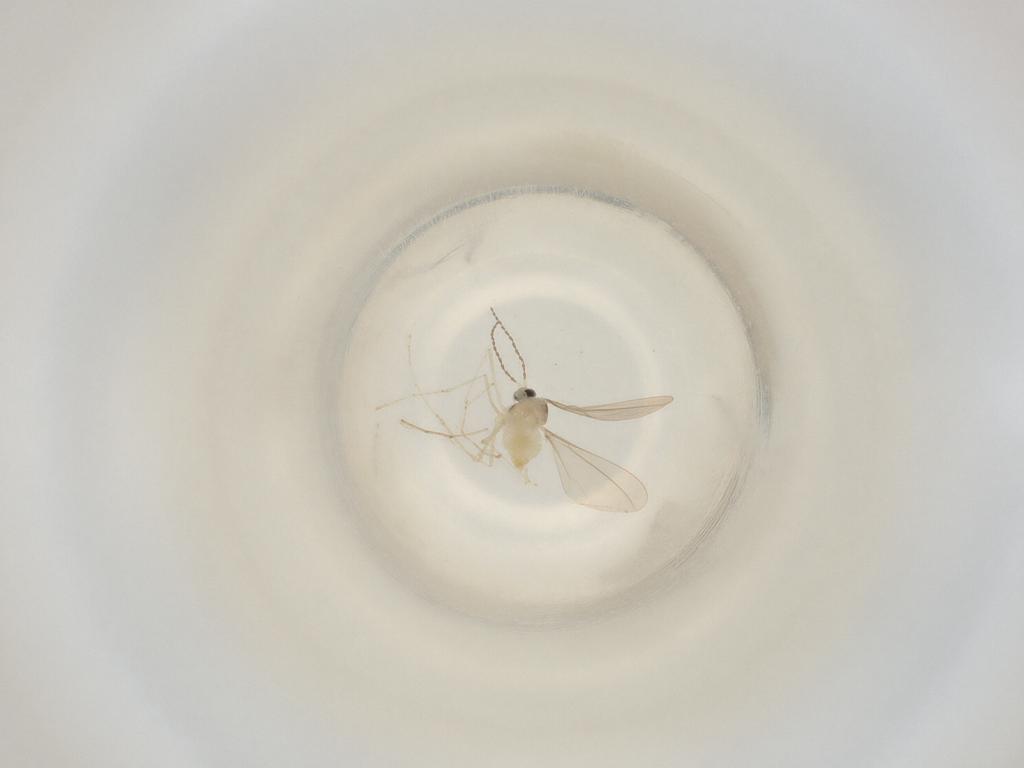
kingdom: Animalia
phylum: Arthropoda
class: Insecta
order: Diptera
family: Cecidomyiidae
